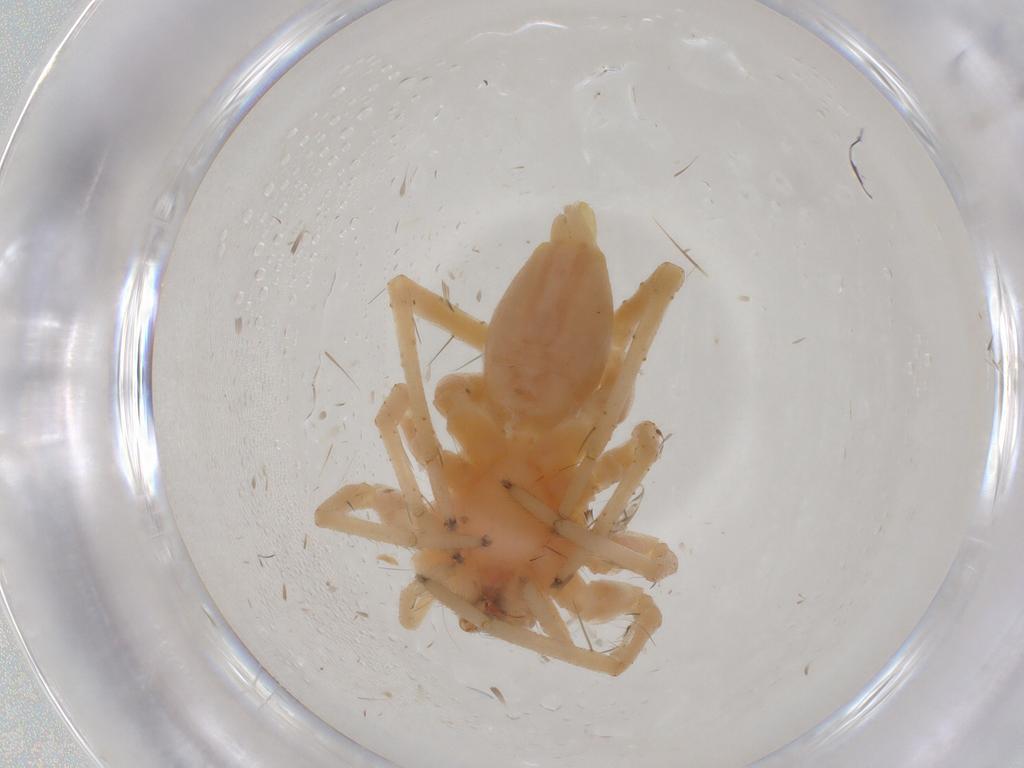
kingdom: Animalia
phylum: Arthropoda
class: Arachnida
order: Araneae
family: Anyphaenidae
